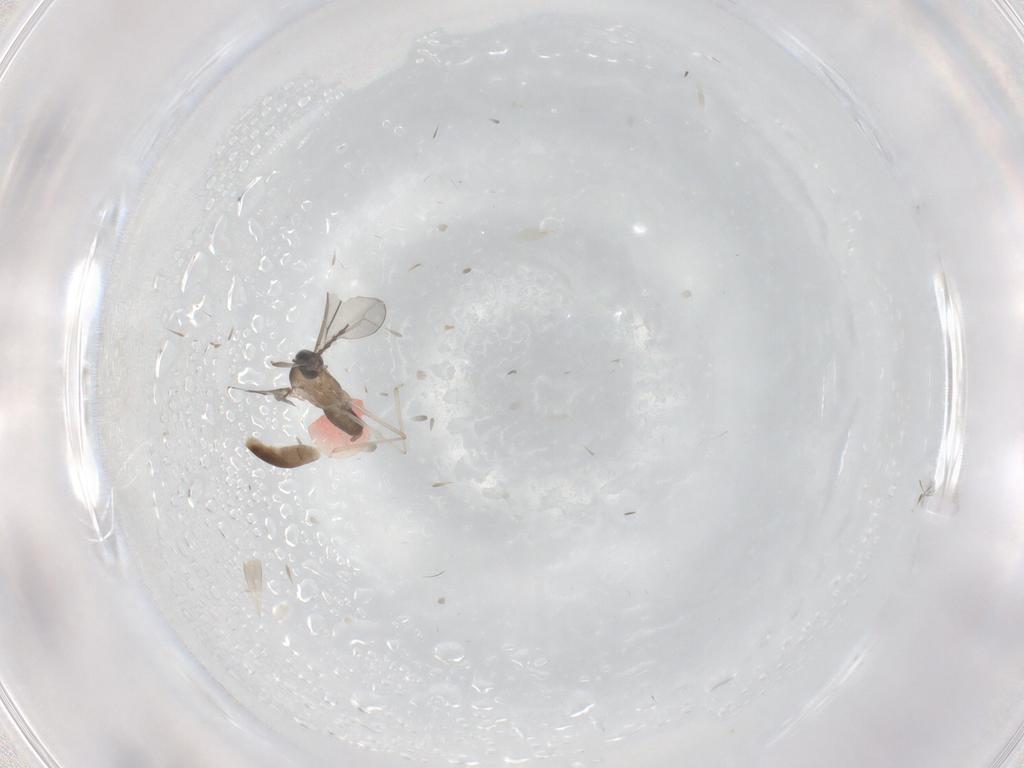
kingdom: Animalia
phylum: Arthropoda
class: Insecta
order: Diptera
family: Cecidomyiidae
